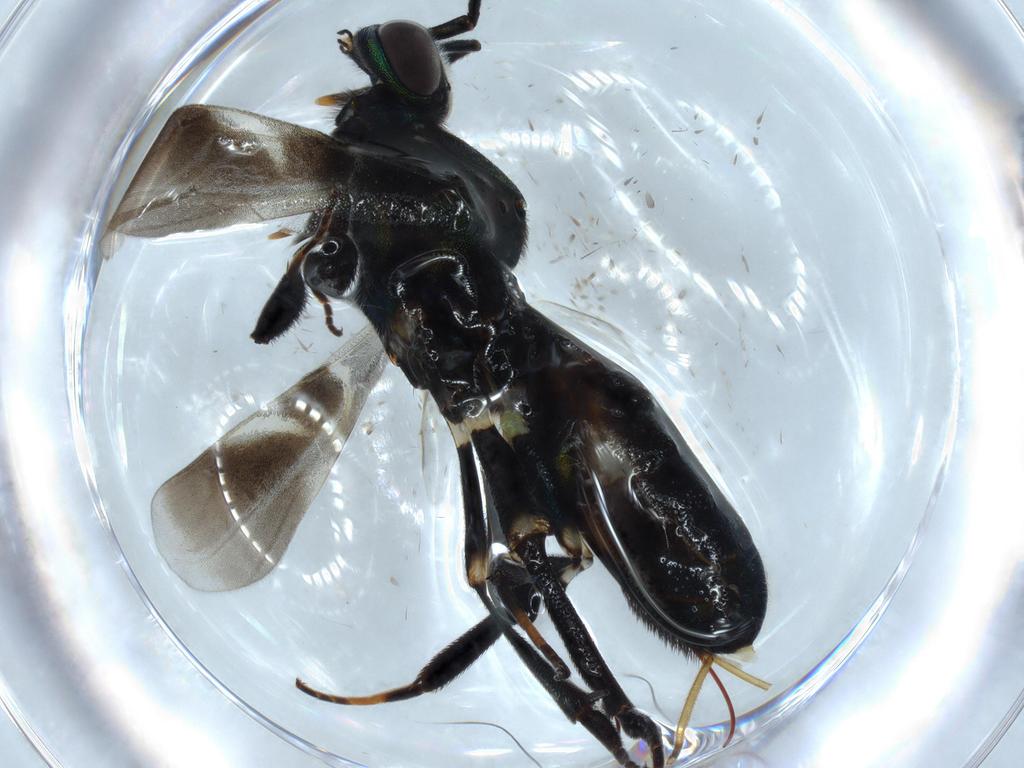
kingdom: Animalia
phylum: Arthropoda
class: Insecta
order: Hymenoptera
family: Eupelmidae
